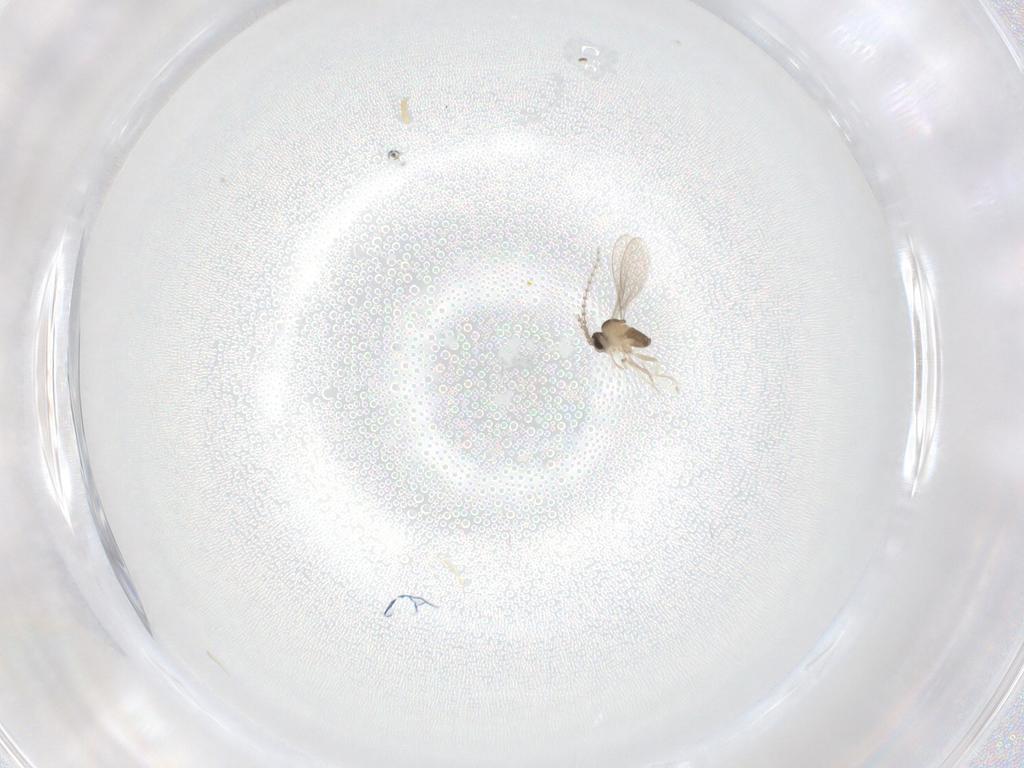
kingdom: Animalia
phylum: Arthropoda
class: Insecta
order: Diptera
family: Cecidomyiidae
